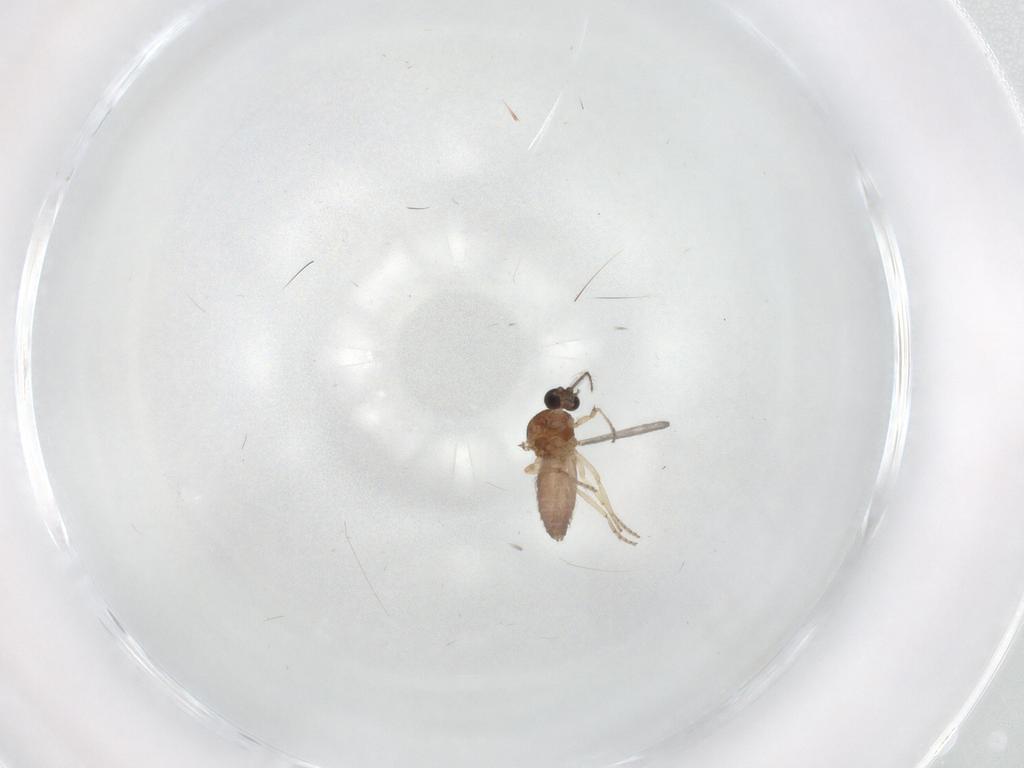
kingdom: Animalia
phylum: Arthropoda
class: Insecta
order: Diptera
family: Ceratopogonidae
